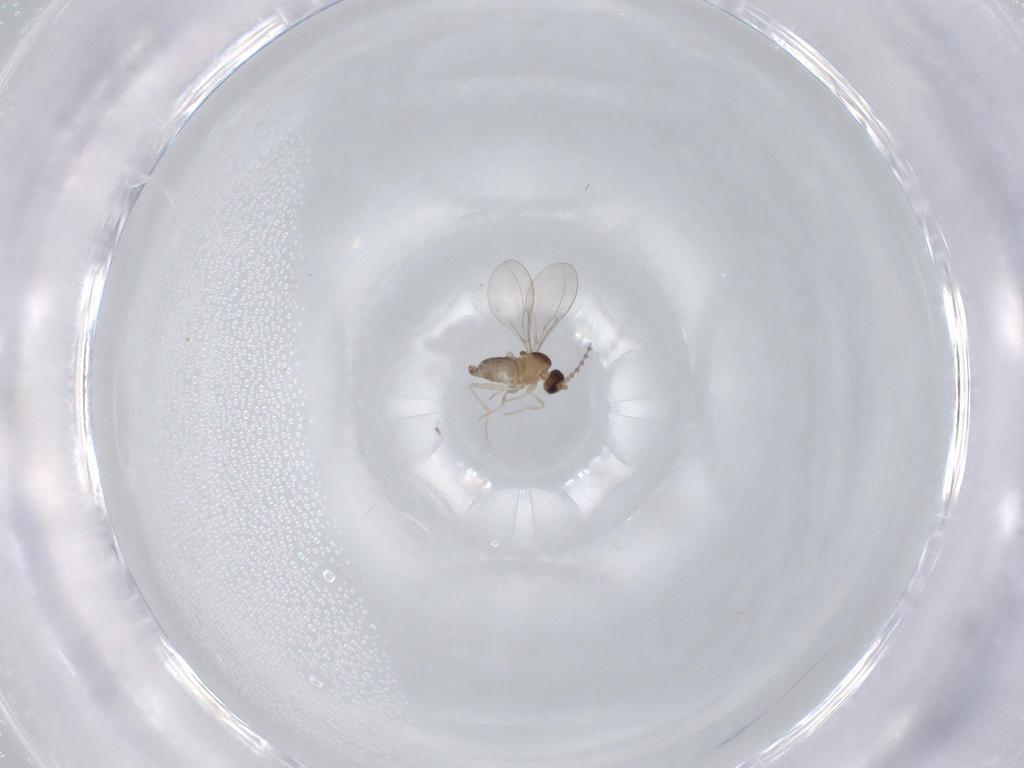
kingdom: Animalia
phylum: Arthropoda
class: Insecta
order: Diptera
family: Cecidomyiidae
